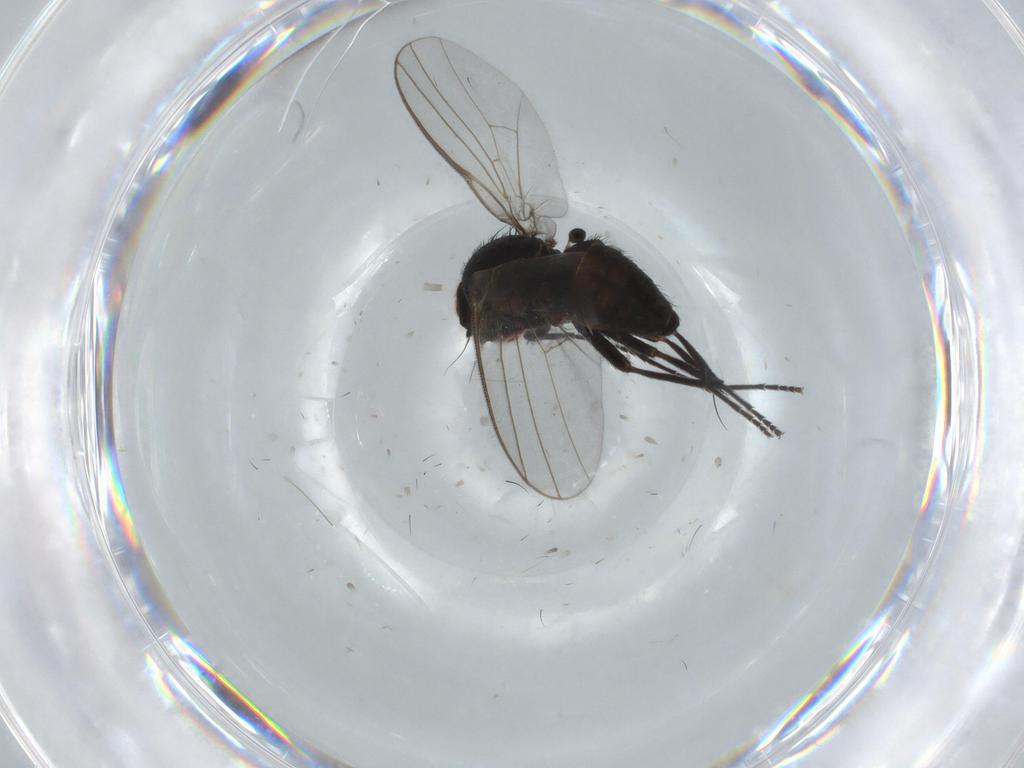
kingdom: Animalia
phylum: Arthropoda
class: Insecta
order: Diptera
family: Agromyzidae
